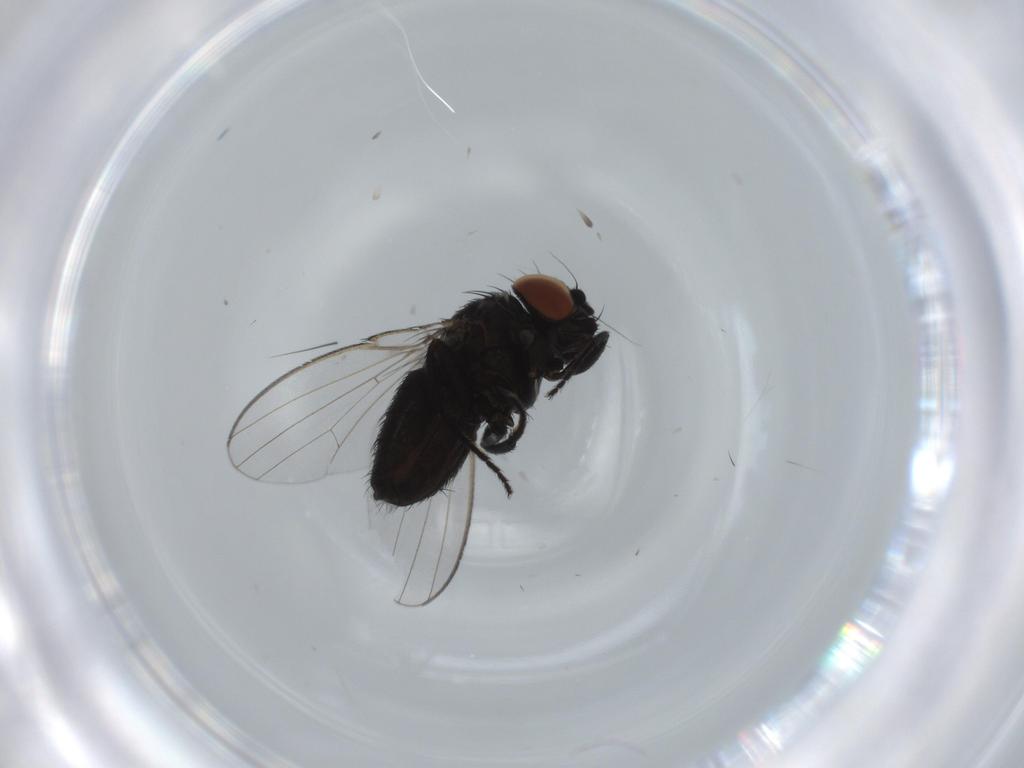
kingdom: Animalia
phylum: Arthropoda
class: Insecta
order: Diptera
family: Milichiidae
